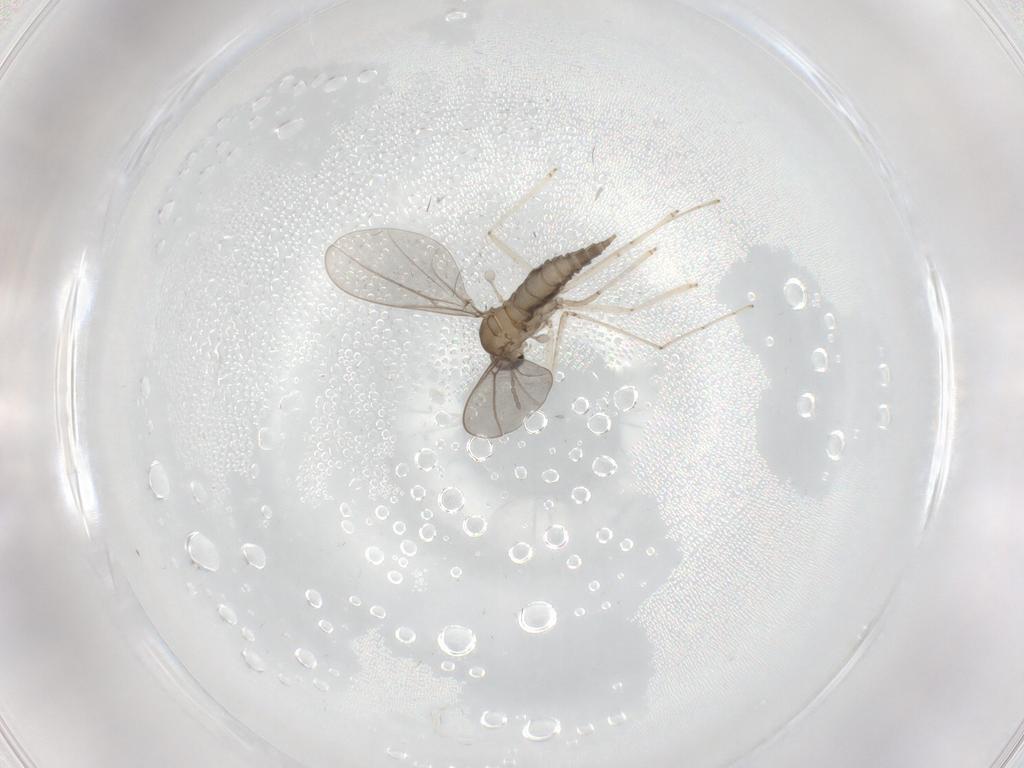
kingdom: Animalia
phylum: Arthropoda
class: Insecta
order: Diptera
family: Cecidomyiidae
